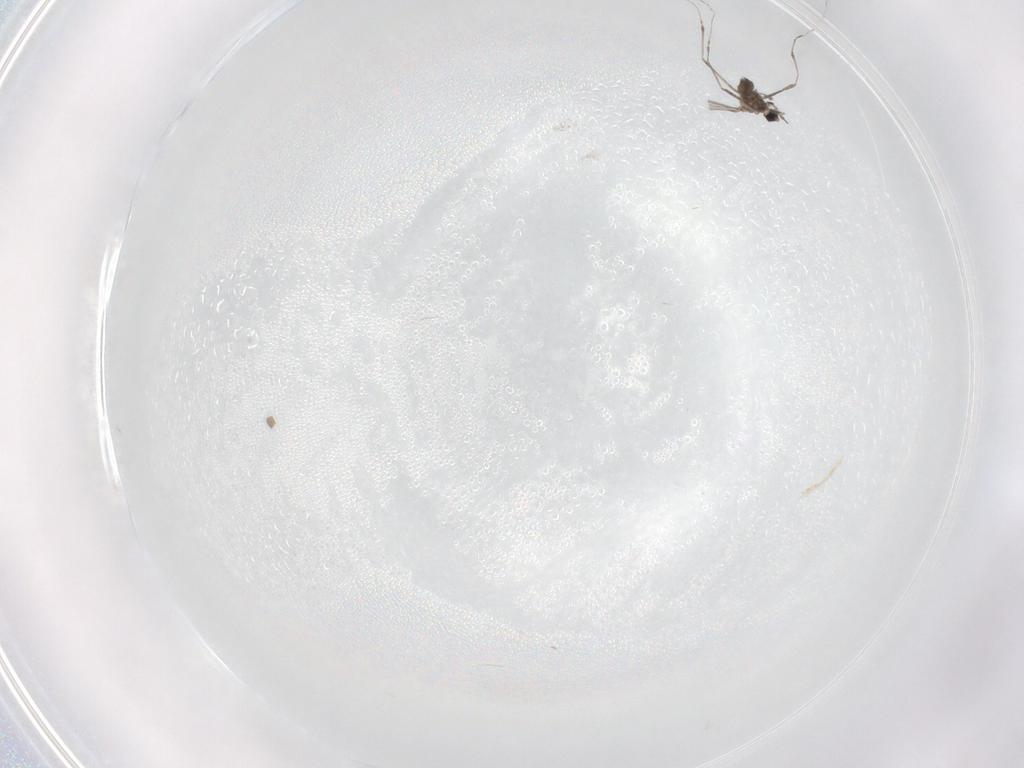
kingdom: Animalia
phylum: Arthropoda
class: Insecta
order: Diptera
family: Cecidomyiidae
